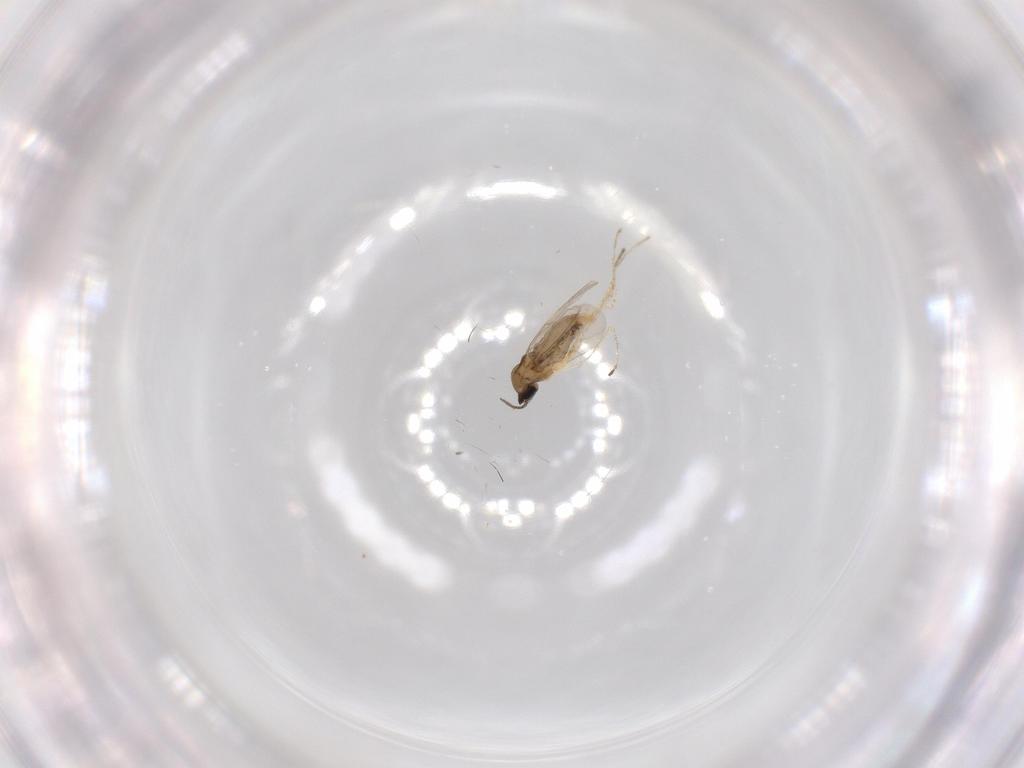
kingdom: Animalia
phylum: Arthropoda
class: Insecta
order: Diptera
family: Cecidomyiidae
